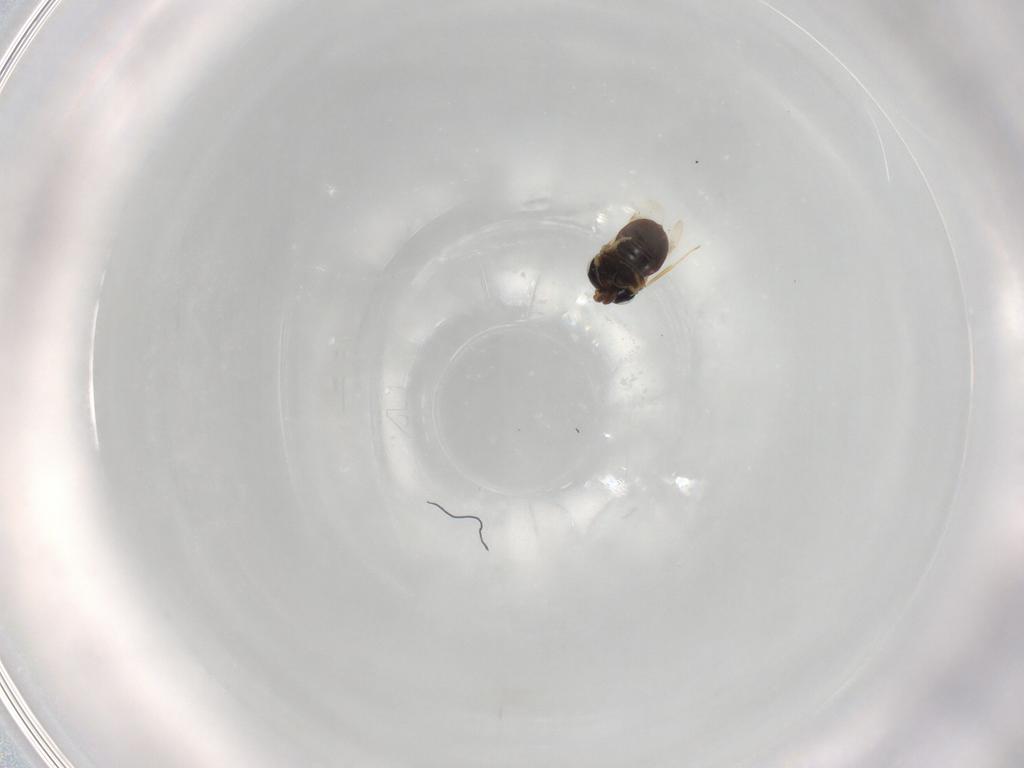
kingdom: Animalia
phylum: Arthropoda
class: Insecta
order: Hymenoptera
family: Scelionidae
